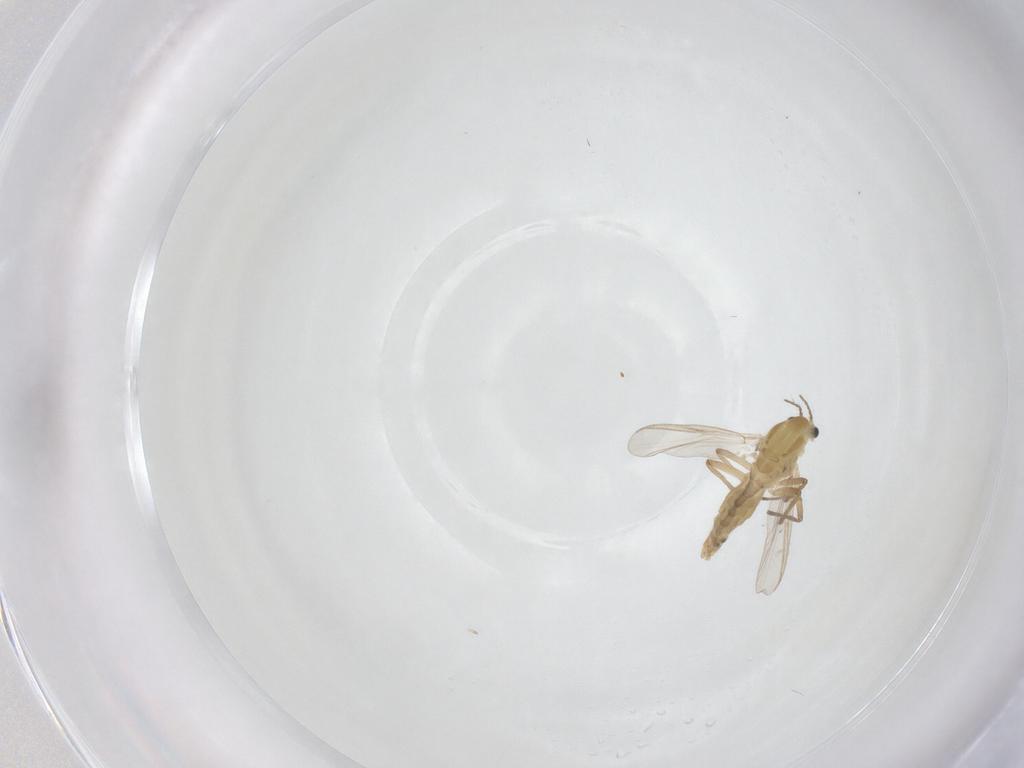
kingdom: Animalia
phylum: Arthropoda
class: Insecta
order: Diptera
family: Chironomidae
